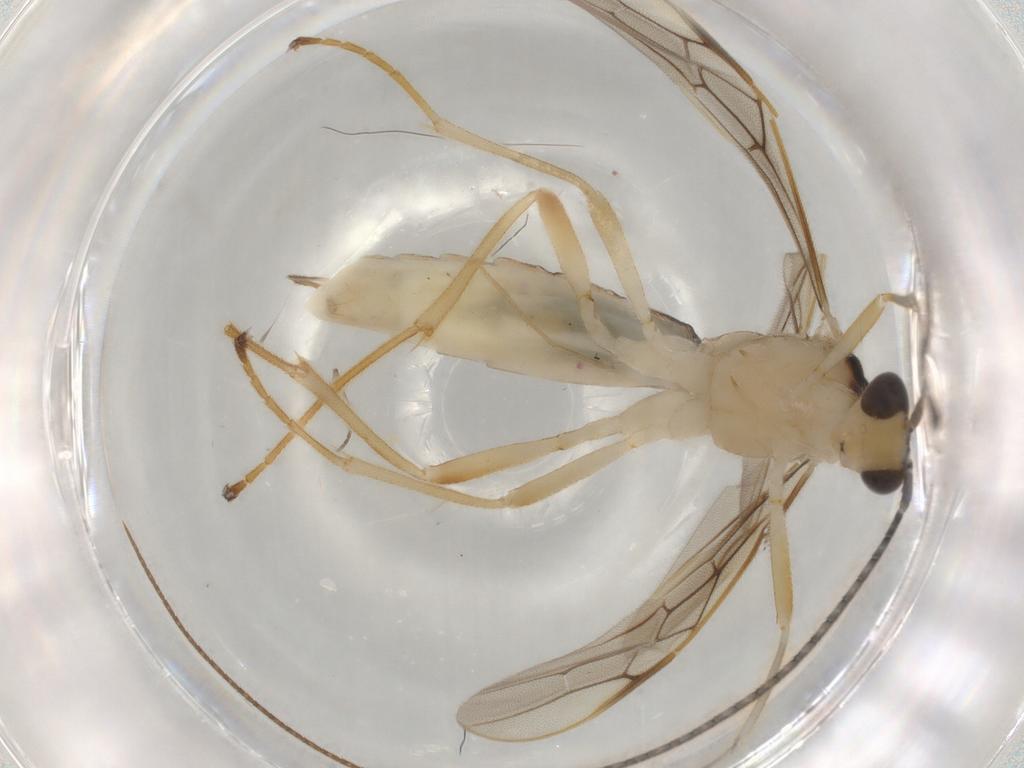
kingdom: Animalia
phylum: Arthropoda
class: Insecta
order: Hymenoptera
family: Braconidae
